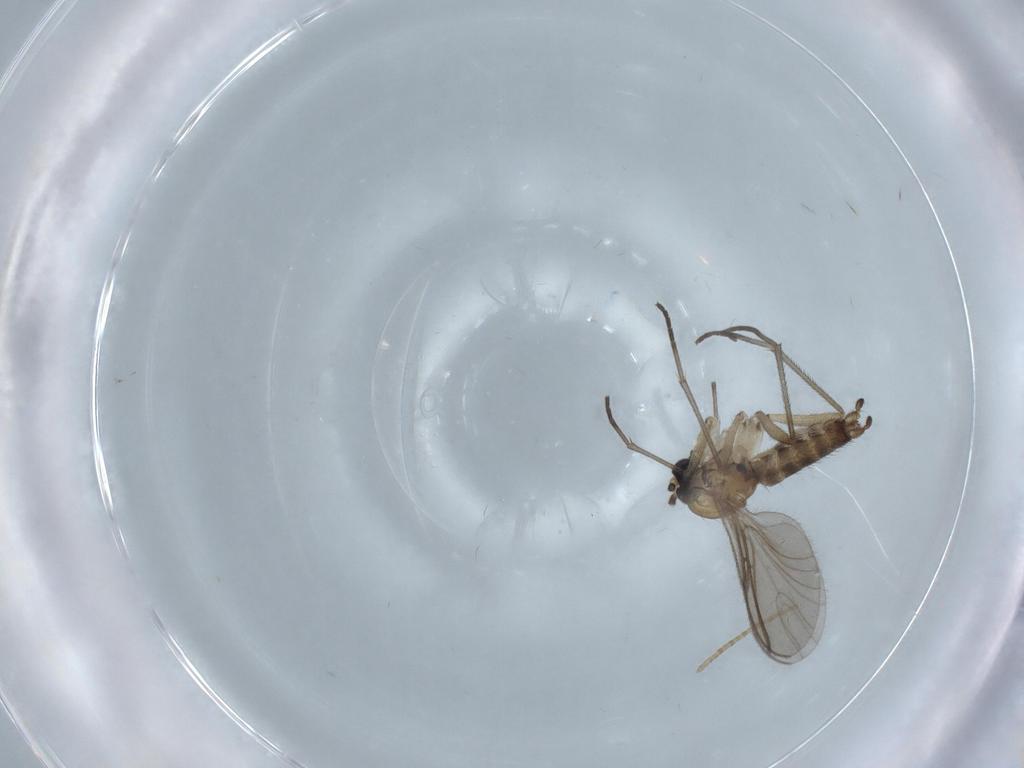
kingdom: Animalia
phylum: Arthropoda
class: Insecta
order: Diptera
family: Sciaridae
